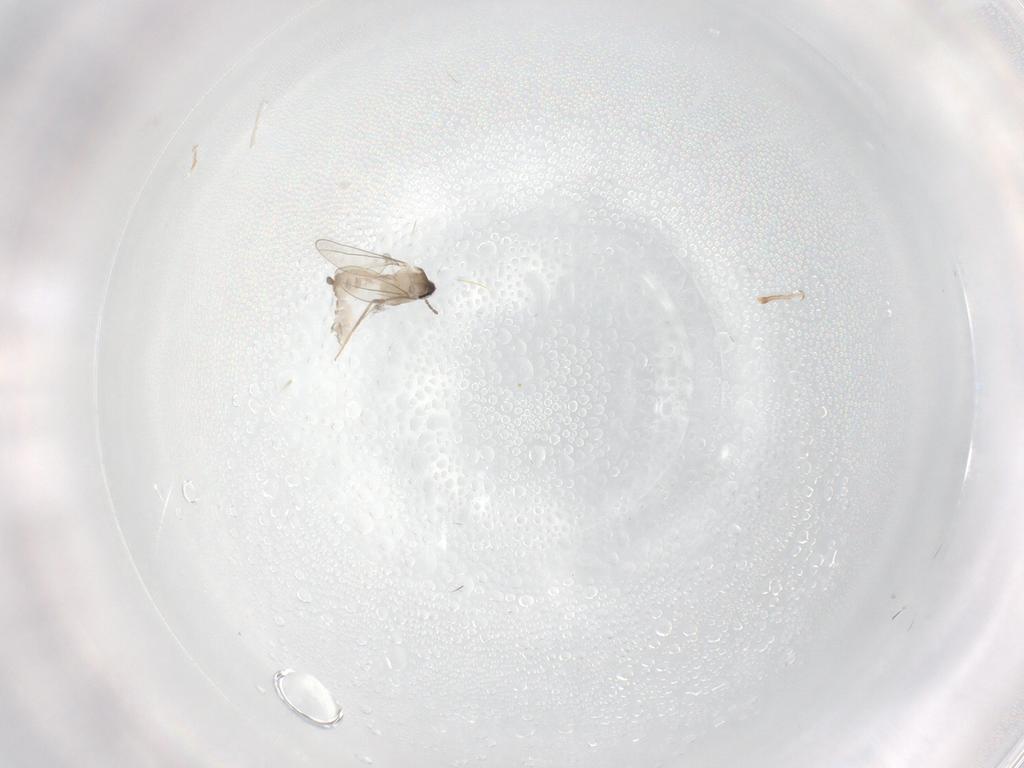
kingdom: Animalia
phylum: Arthropoda
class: Insecta
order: Diptera
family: Cecidomyiidae
